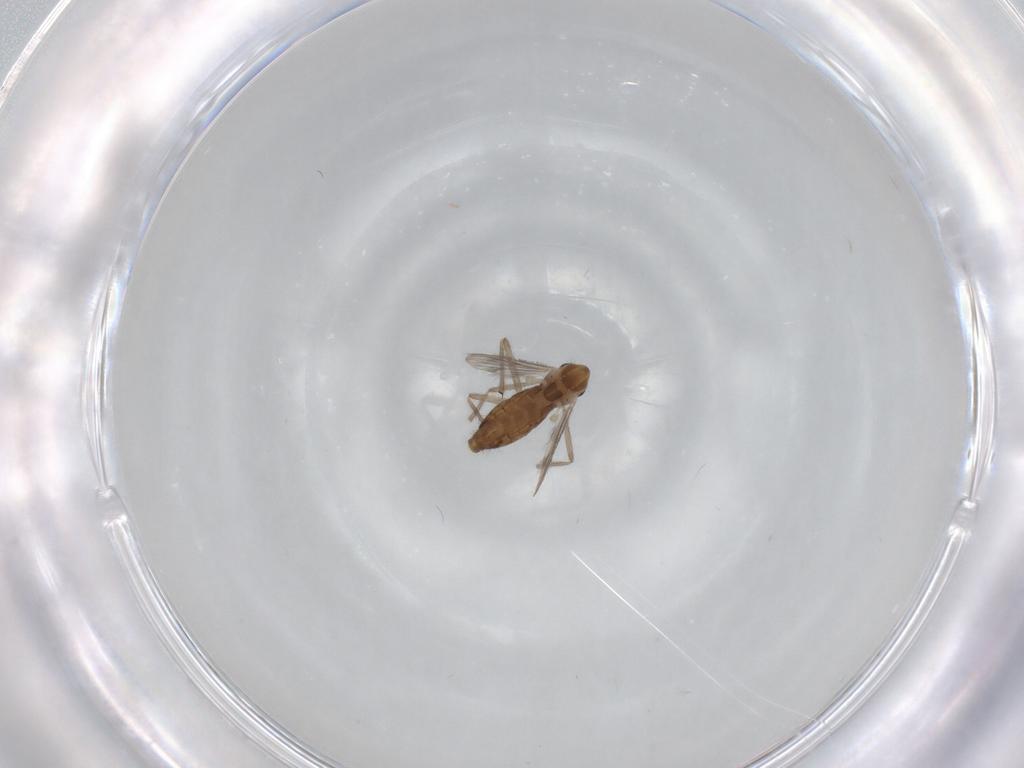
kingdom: Animalia
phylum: Arthropoda
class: Insecta
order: Diptera
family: Chironomidae
